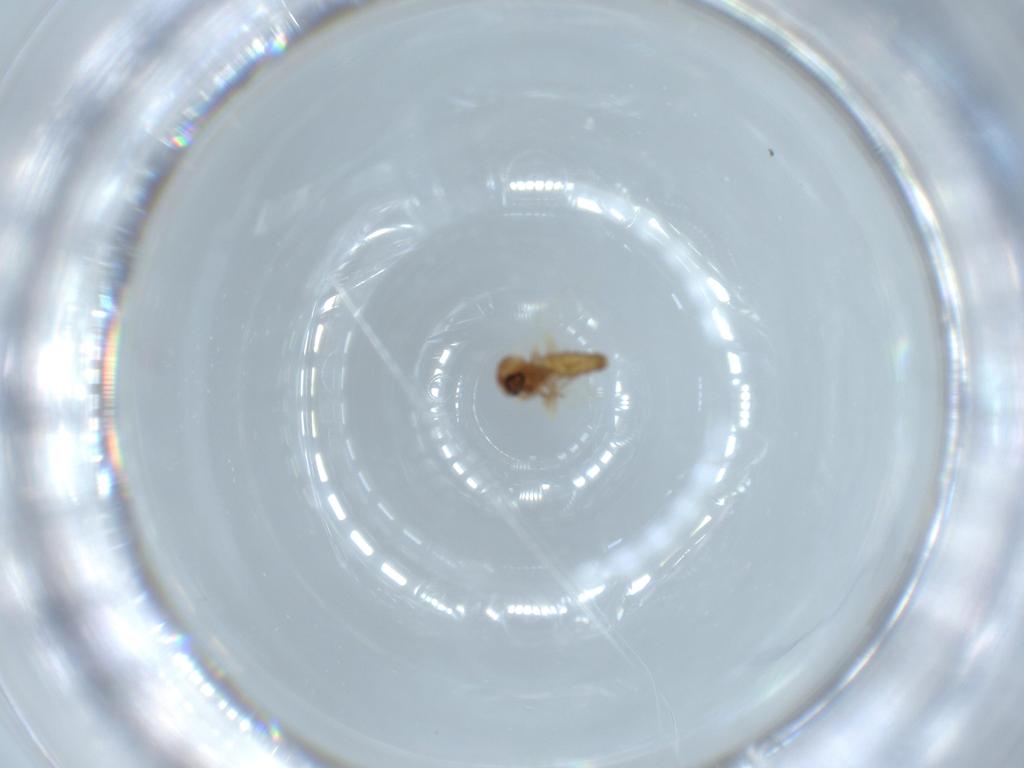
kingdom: Animalia
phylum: Arthropoda
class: Insecta
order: Diptera
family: Ceratopogonidae
